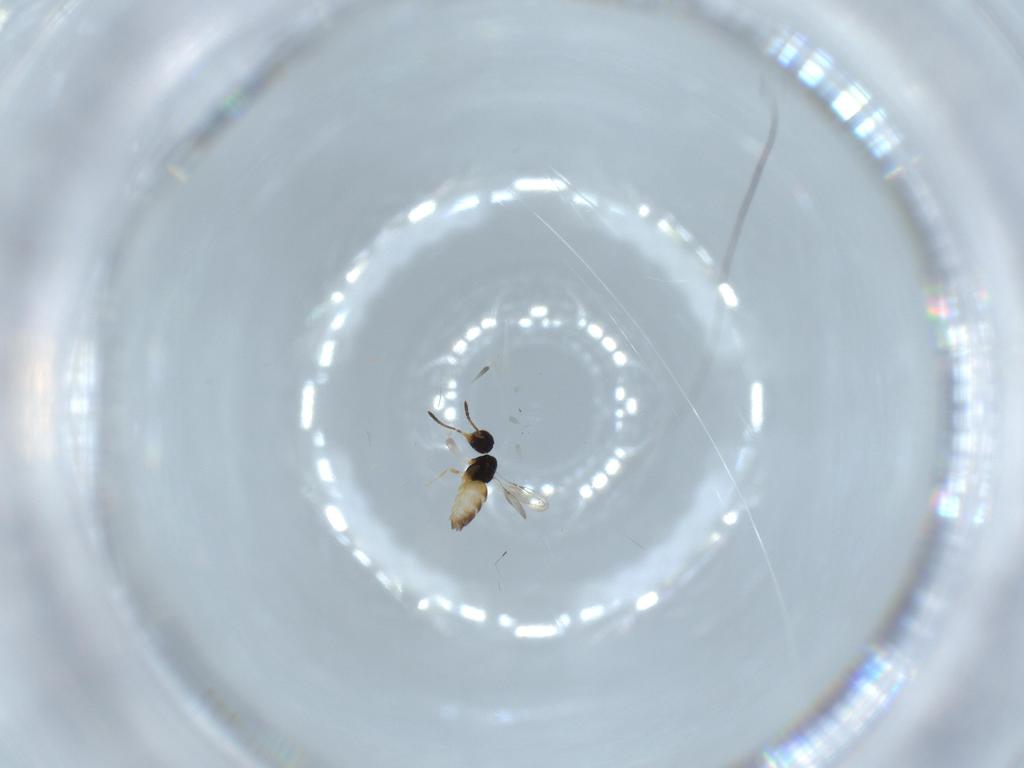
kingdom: Animalia
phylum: Arthropoda
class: Insecta
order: Hymenoptera
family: Ceraphronidae
